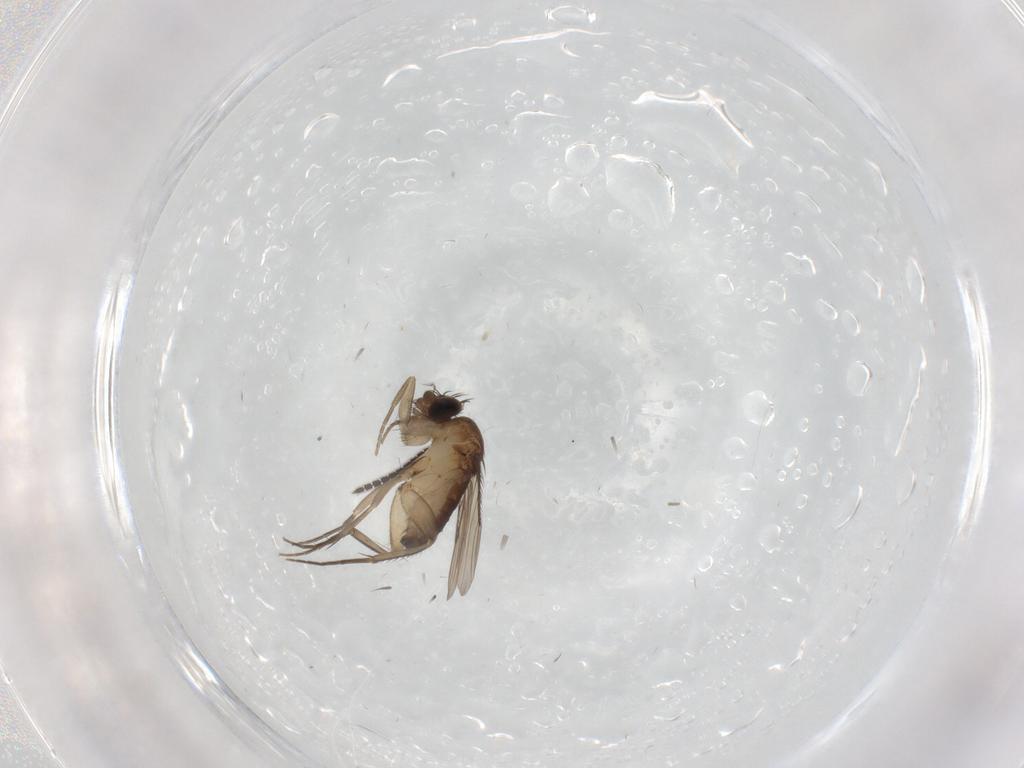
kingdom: Animalia
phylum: Arthropoda
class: Insecta
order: Diptera
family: Phoridae
